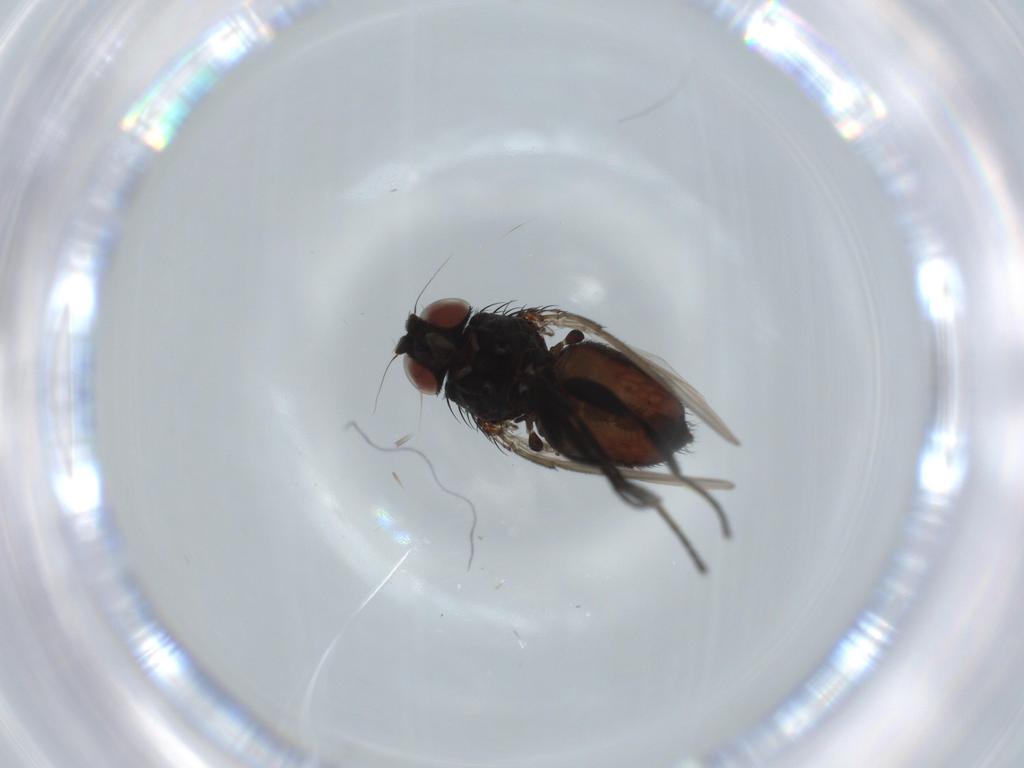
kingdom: Animalia
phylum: Arthropoda
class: Insecta
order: Diptera
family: Milichiidae
